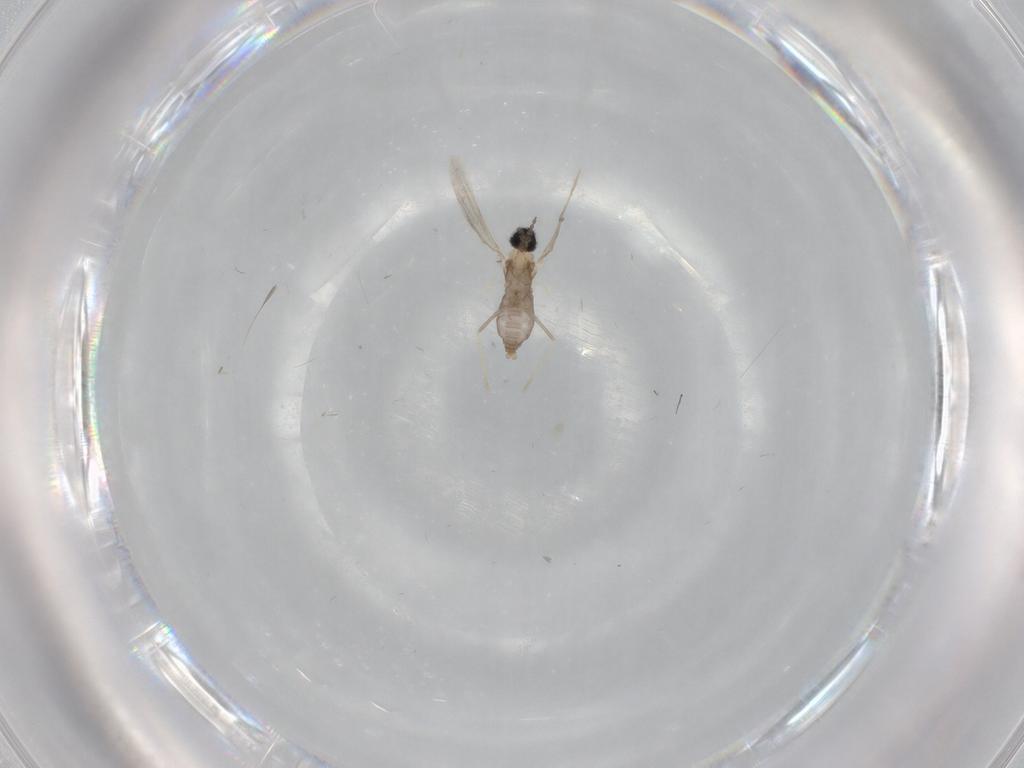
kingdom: Animalia
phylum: Arthropoda
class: Insecta
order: Diptera
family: Cecidomyiidae
